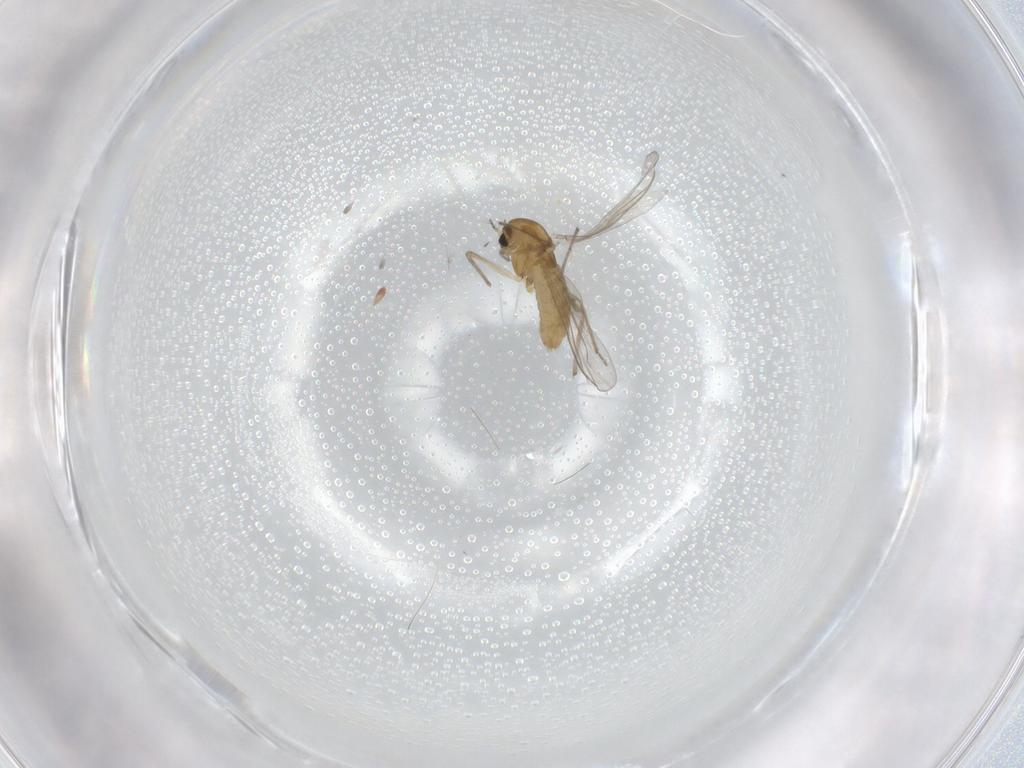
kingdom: Animalia
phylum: Arthropoda
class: Insecta
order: Diptera
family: Chironomidae
